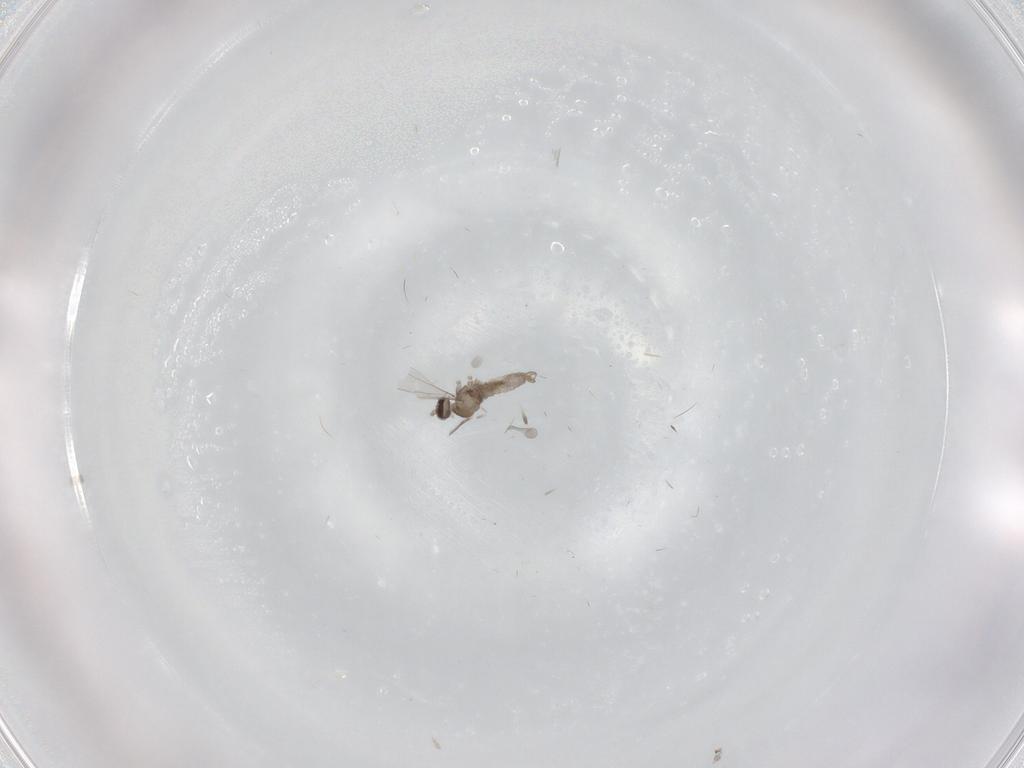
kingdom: Animalia
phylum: Arthropoda
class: Insecta
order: Diptera
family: Cecidomyiidae
